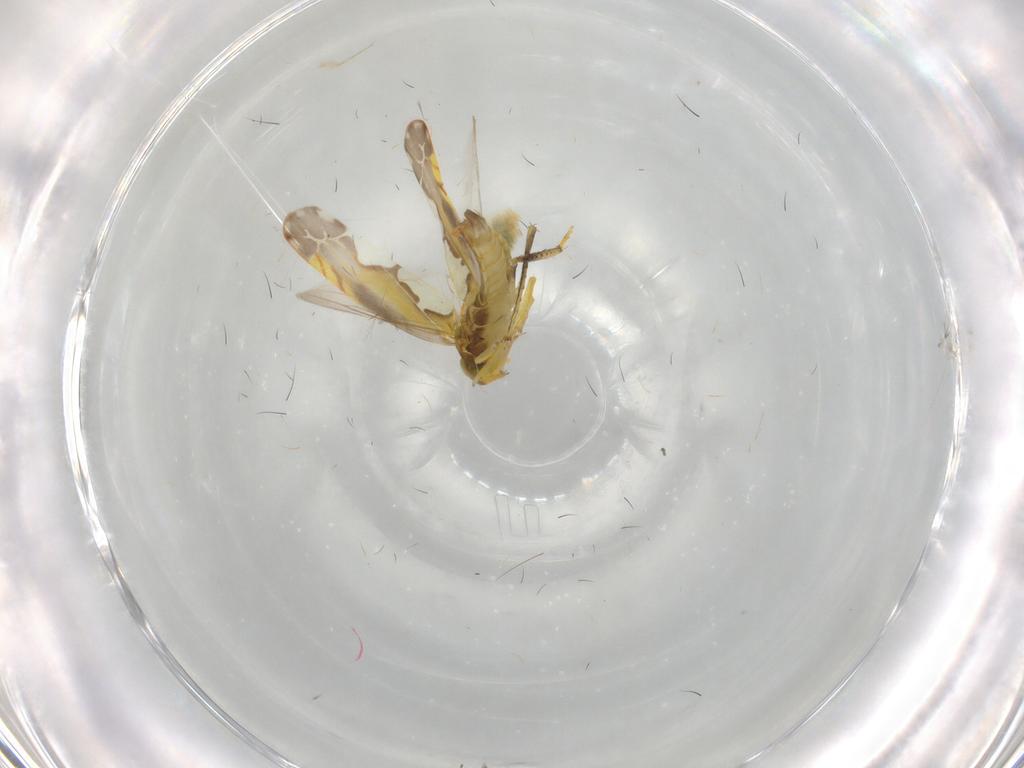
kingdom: Animalia
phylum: Arthropoda
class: Insecta
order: Hemiptera
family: Cicadellidae
